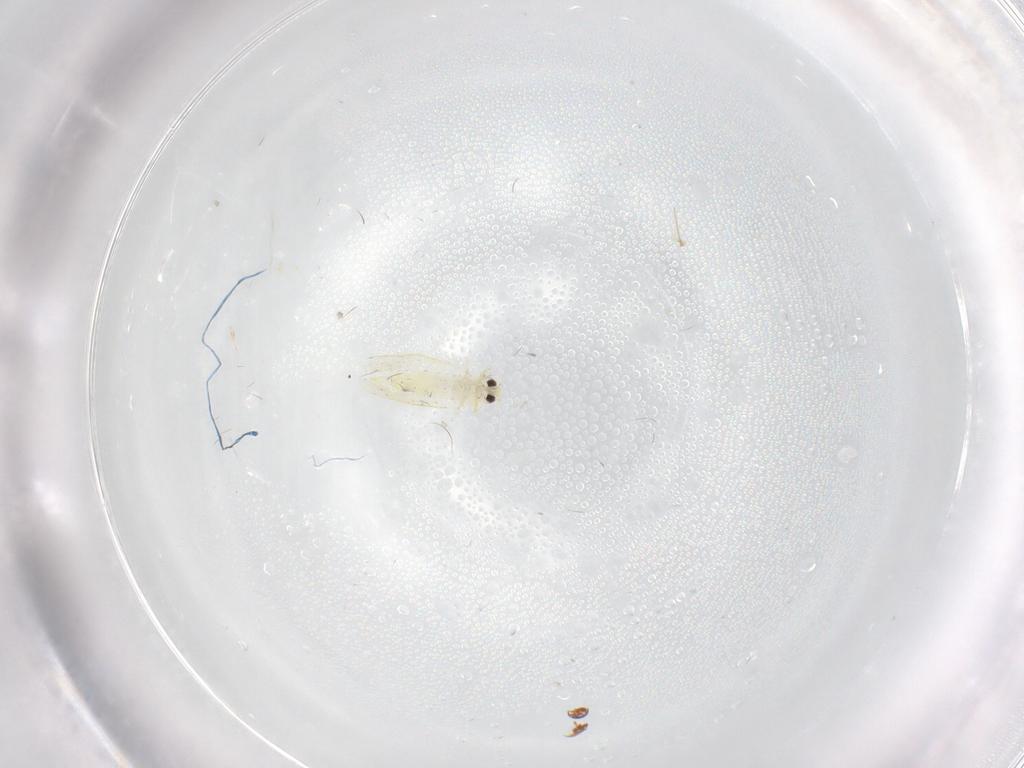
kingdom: Animalia
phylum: Arthropoda
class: Insecta
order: Hemiptera
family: Aleyrodidae
